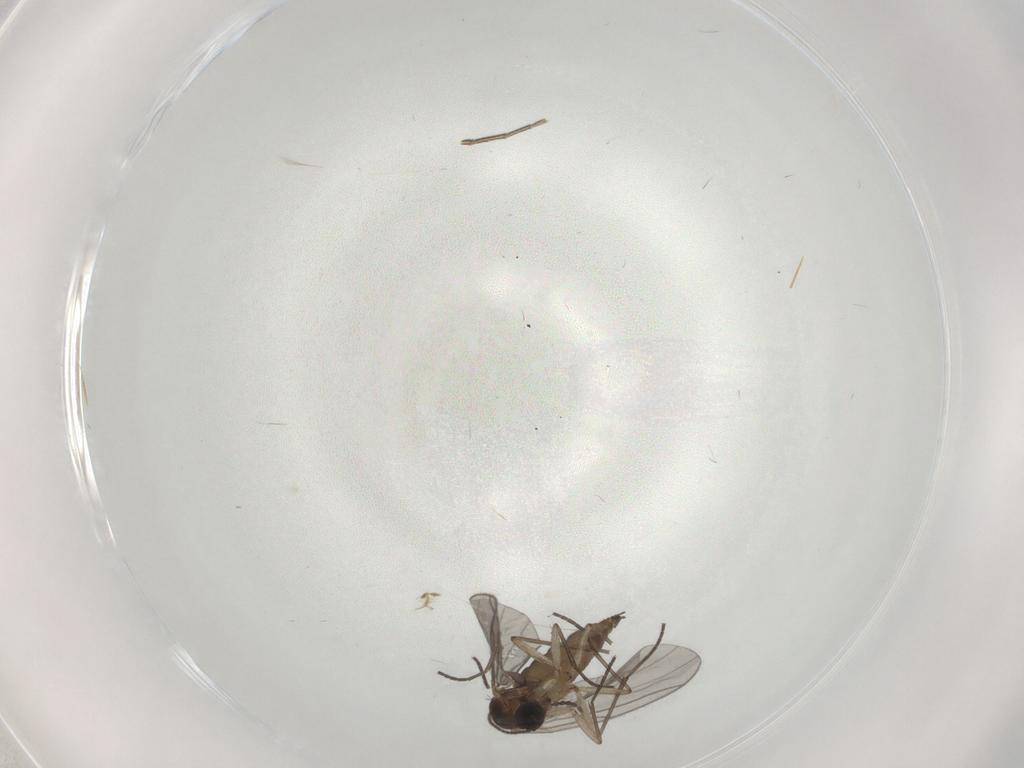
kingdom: Animalia
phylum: Arthropoda
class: Insecta
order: Diptera
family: Sciaridae
